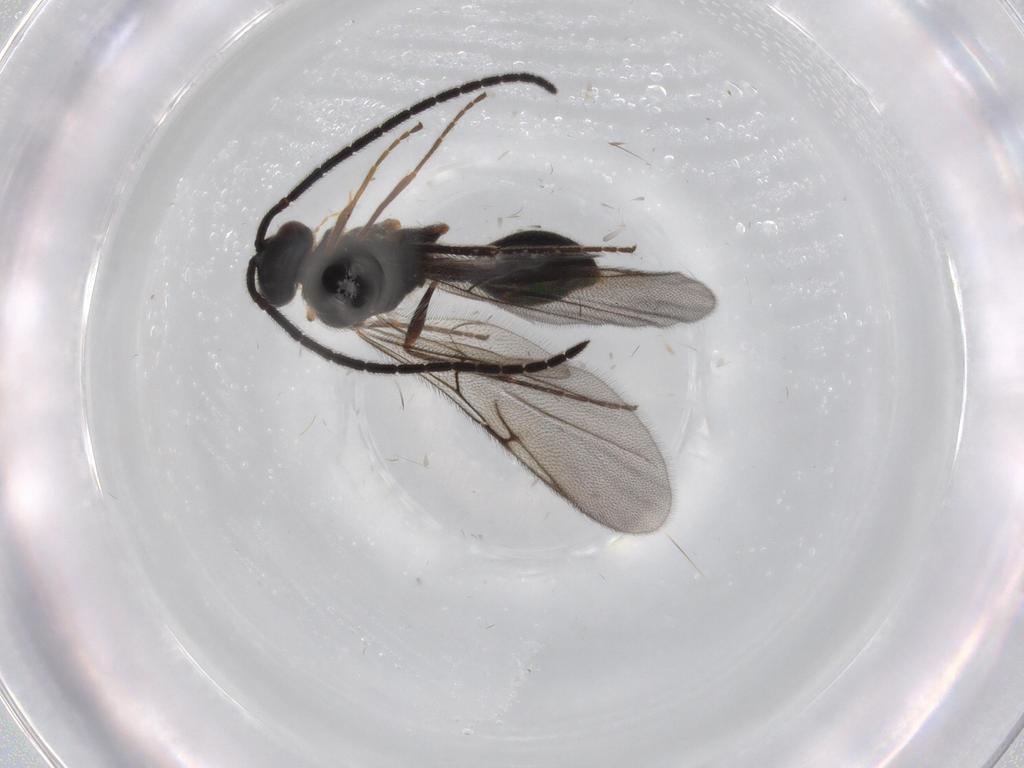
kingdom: Animalia
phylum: Arthropoda
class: Insecta
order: Hymenoptera
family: Diapriidae
